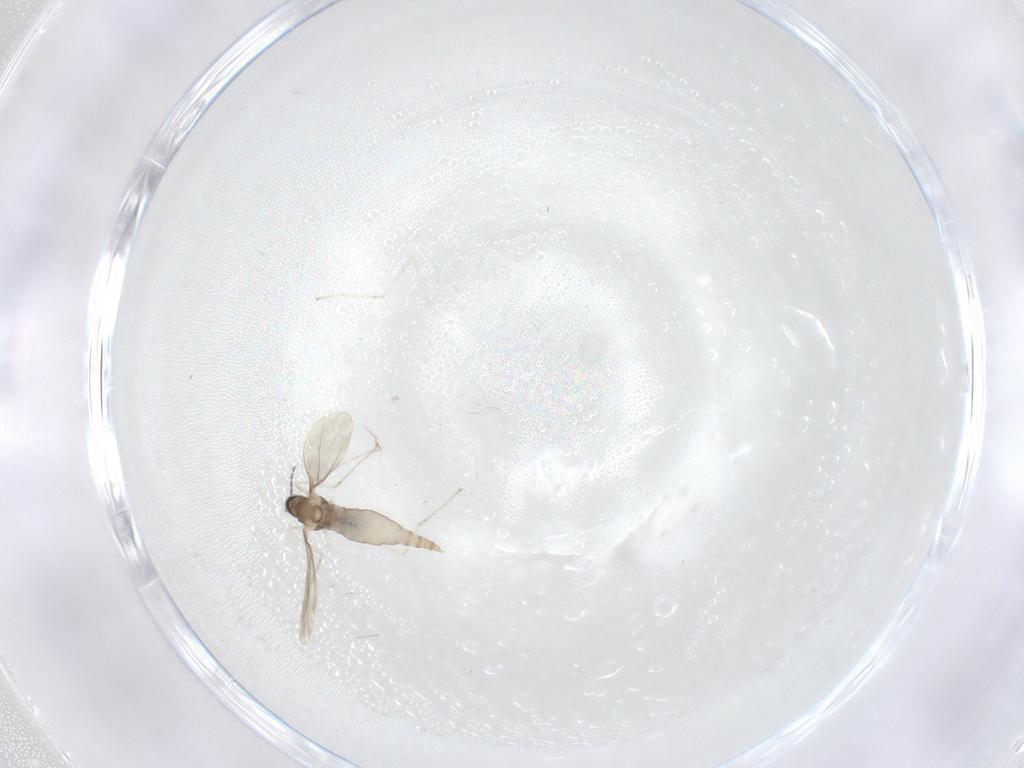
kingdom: Animalia
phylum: Arthropoda
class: Insecta
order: Diptera
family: Cecidomyiidae
